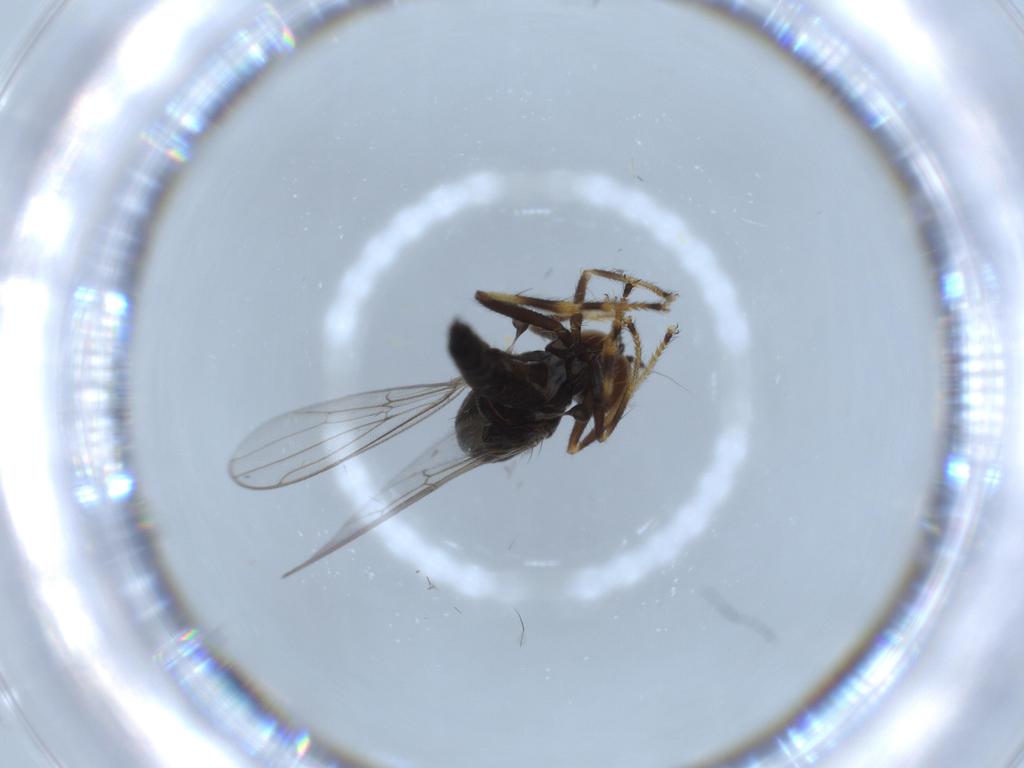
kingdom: Animalia
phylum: Arthropoda
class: Insecta
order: Diptera
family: Hybotidae
